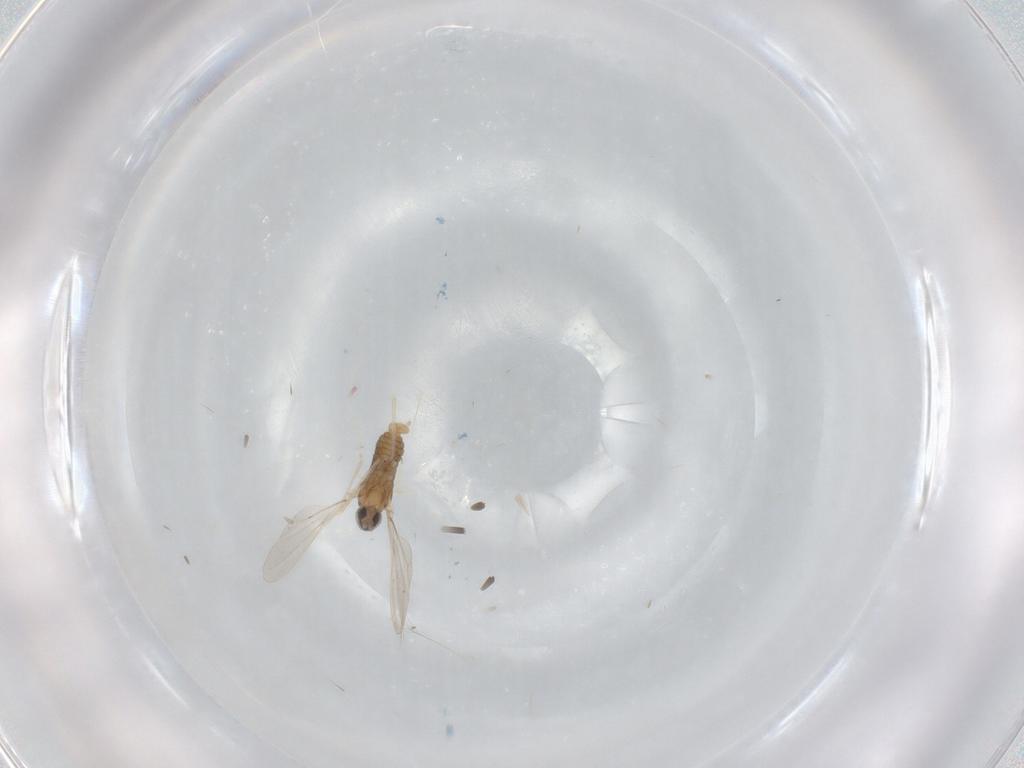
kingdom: Animalia
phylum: Arthropoda
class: Insecta
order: Diptera
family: Cecidomyiidae
